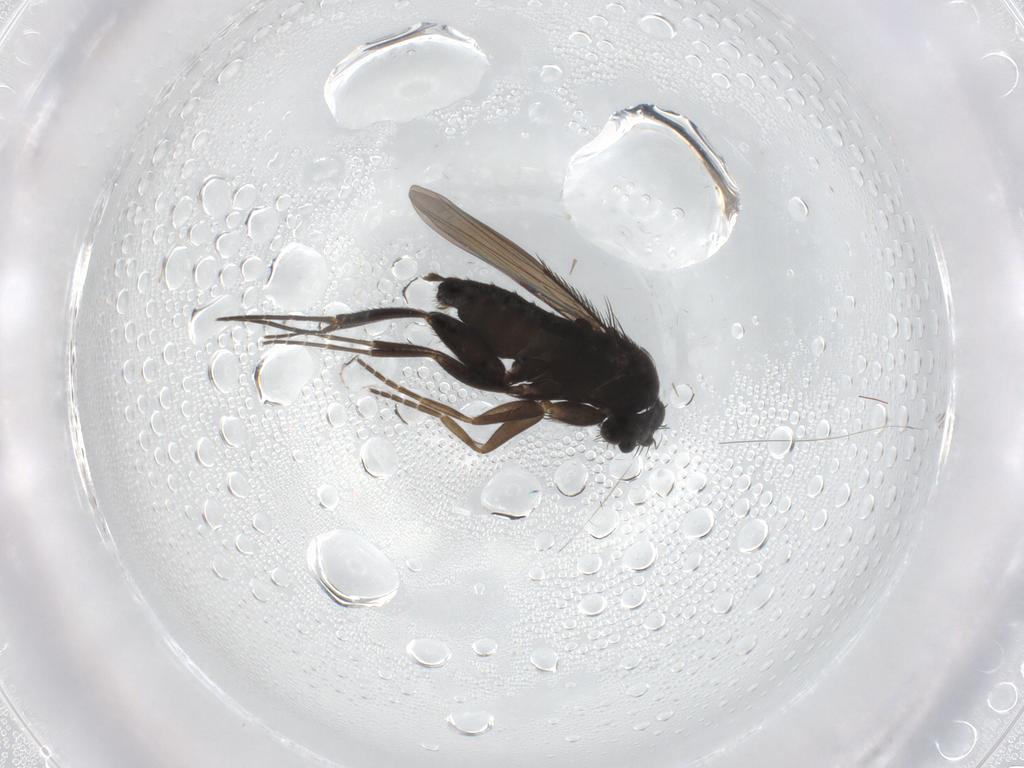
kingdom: Animalia
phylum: Arthropoda
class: Insecta
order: Diptera
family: Phoridae
